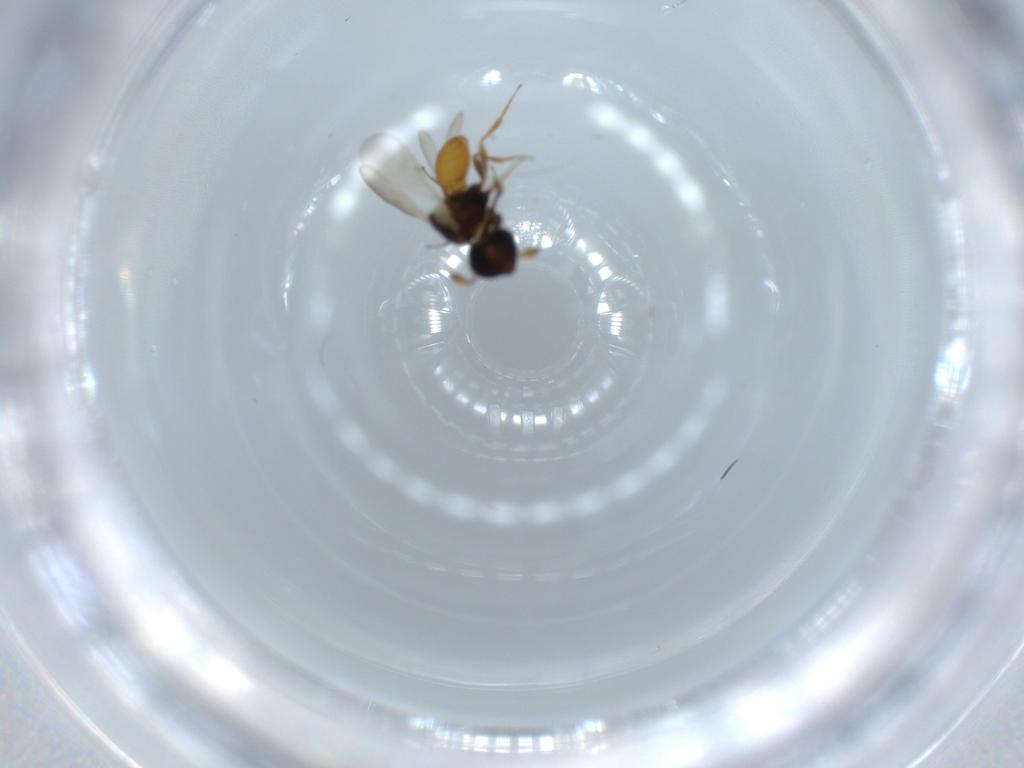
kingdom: Animalia
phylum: Arthropoda
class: Insecta
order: Hymenoptera
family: Scelionidae
